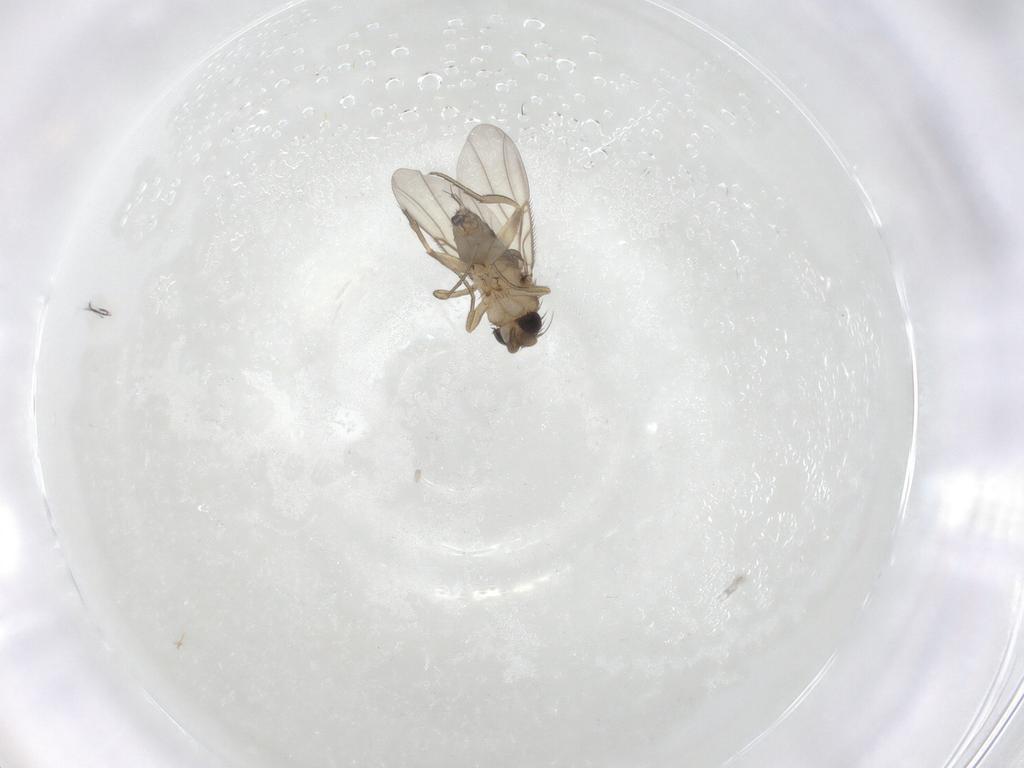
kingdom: Animalia
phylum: Arthropoda
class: Insecta
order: Diptera
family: Phoridae
